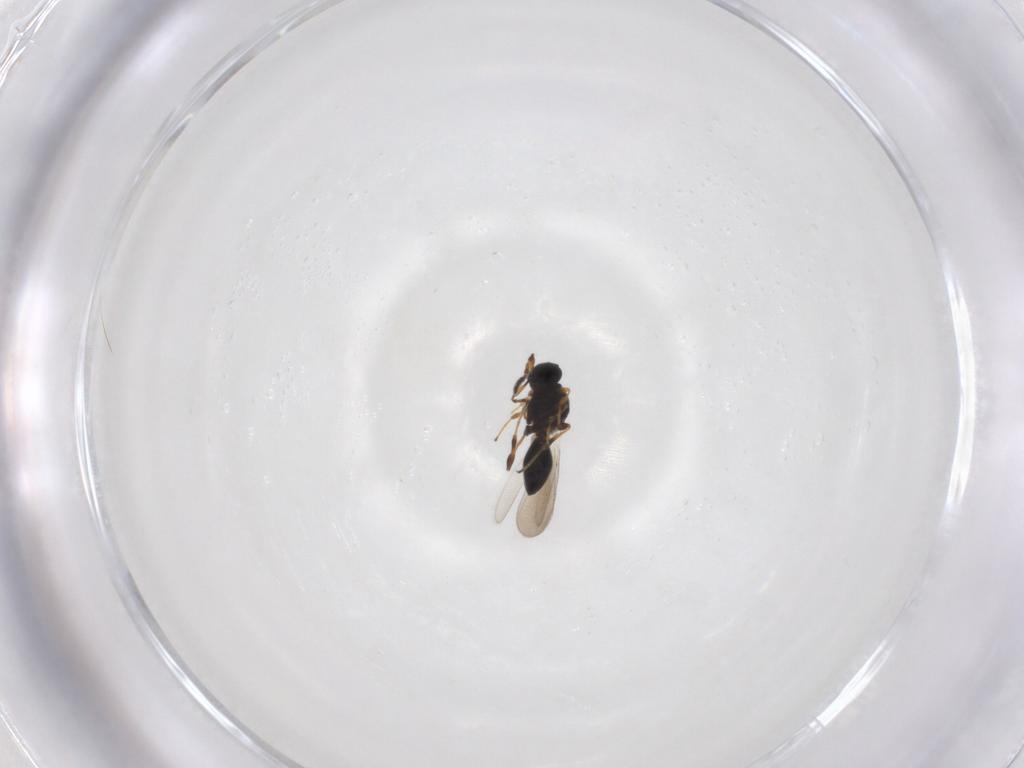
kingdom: Animalia
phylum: Arthropoda
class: Insecta
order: Hymenoptera
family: Platygastridae
